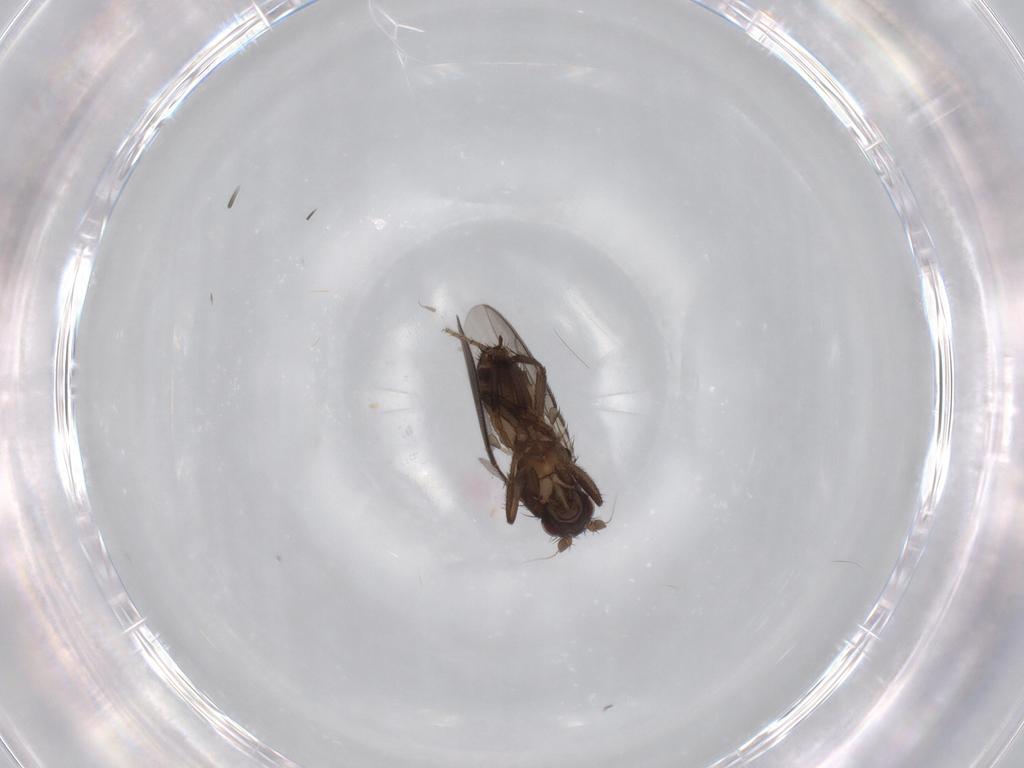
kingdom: Animalia
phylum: Arthropoda
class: Insecta
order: Diptera
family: Sphaeroceridae
